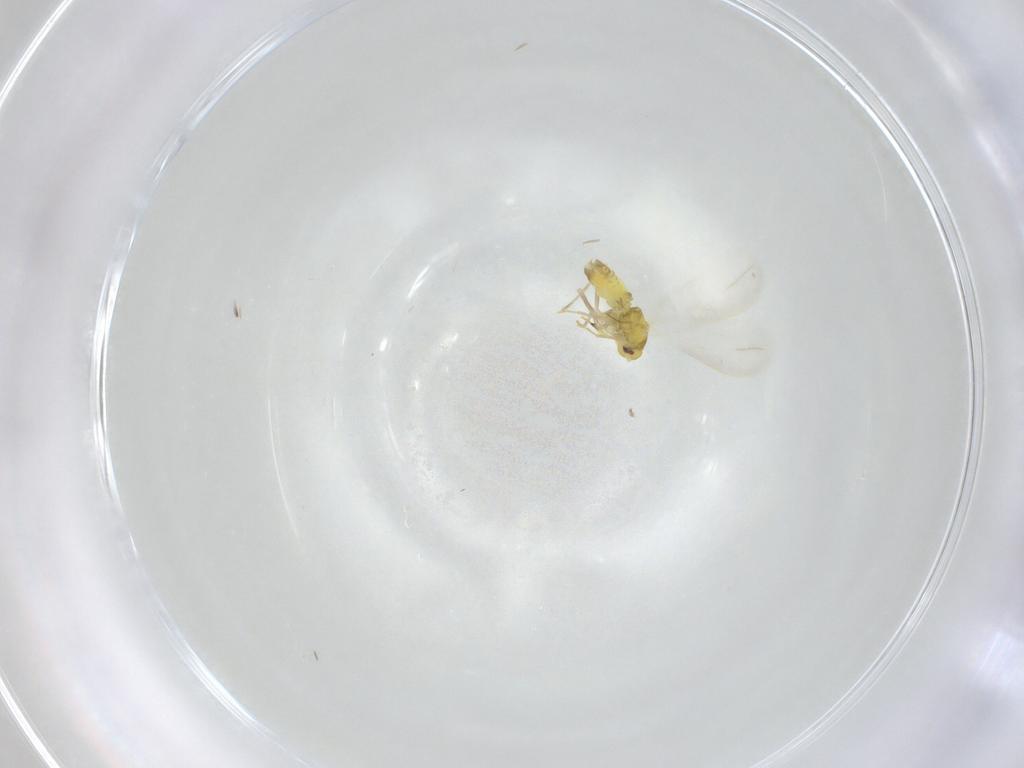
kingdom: Animalia
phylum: Arthropoda
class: Insecta
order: Hemiptera
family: Aleyrodidae
